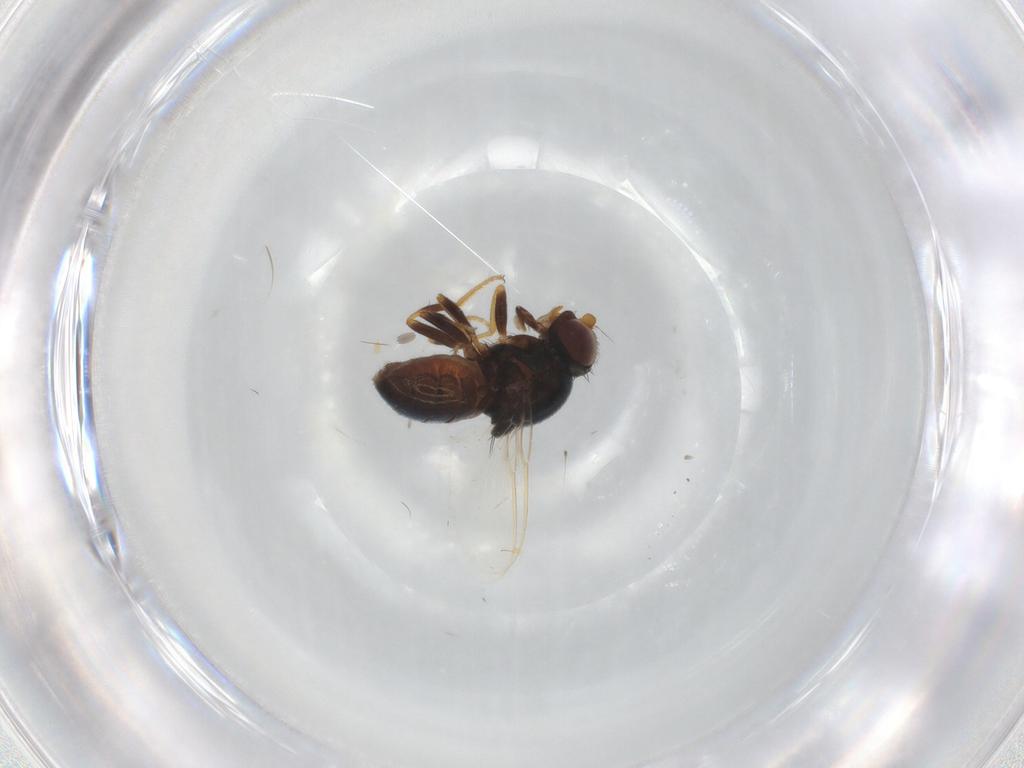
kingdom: Animalia
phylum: Arthropoda
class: Insecta
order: Diptera
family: Chloropidae
